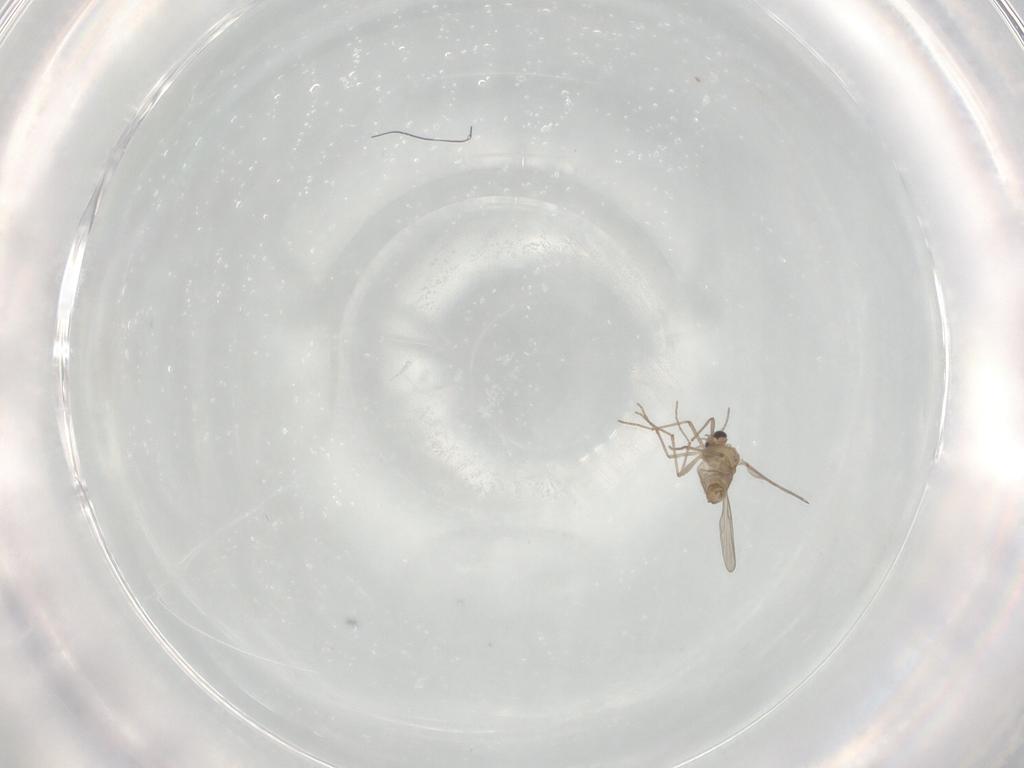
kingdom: Animalia
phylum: Arthropoda
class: Insecta
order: Diptera
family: Chironomidae
